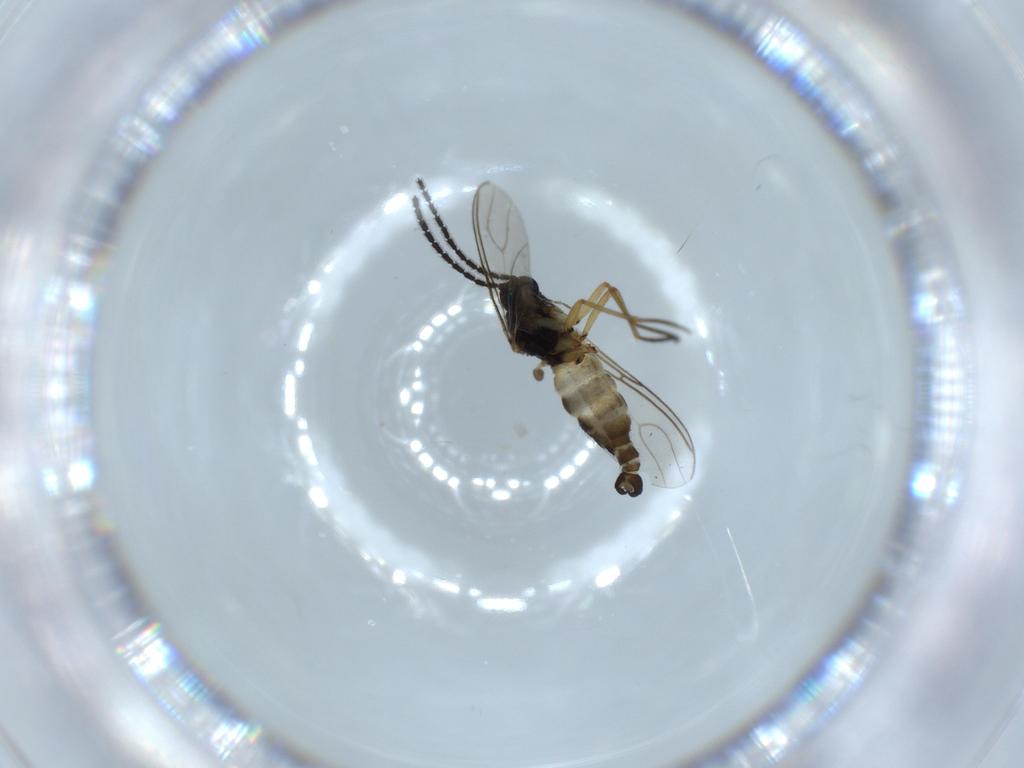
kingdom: Animalia
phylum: Arthropoda
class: Insecta
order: Diptera
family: Sciaridae
